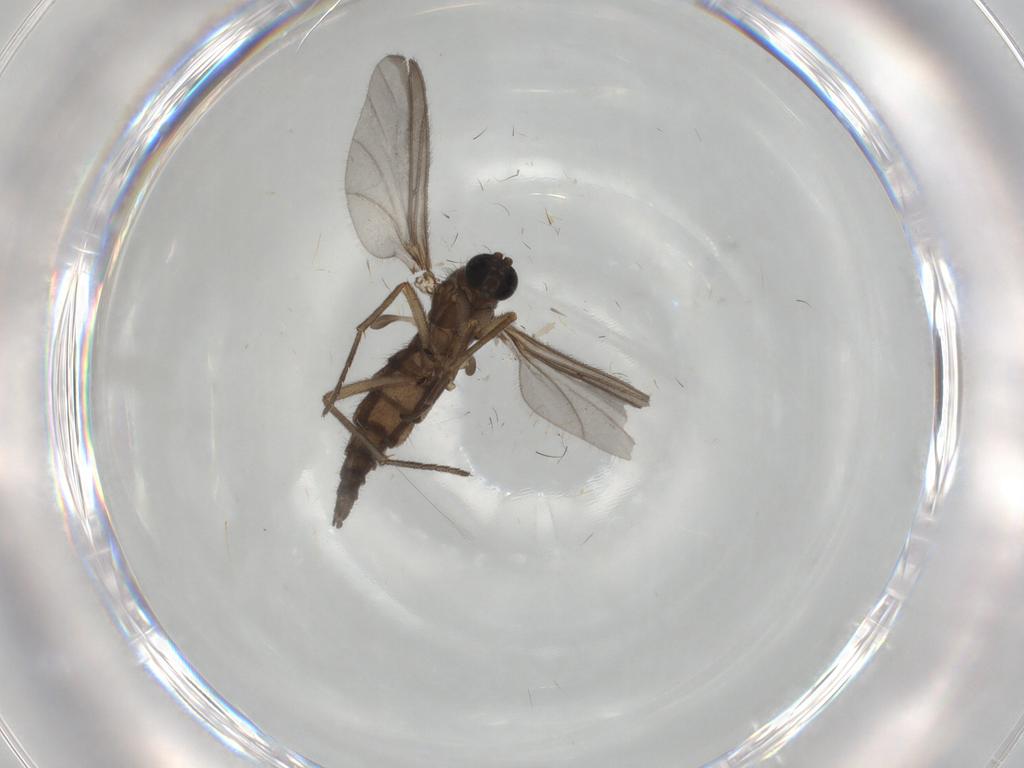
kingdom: Animalia
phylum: Arthropoda
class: Insecta
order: Diptera
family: Sciaridae
